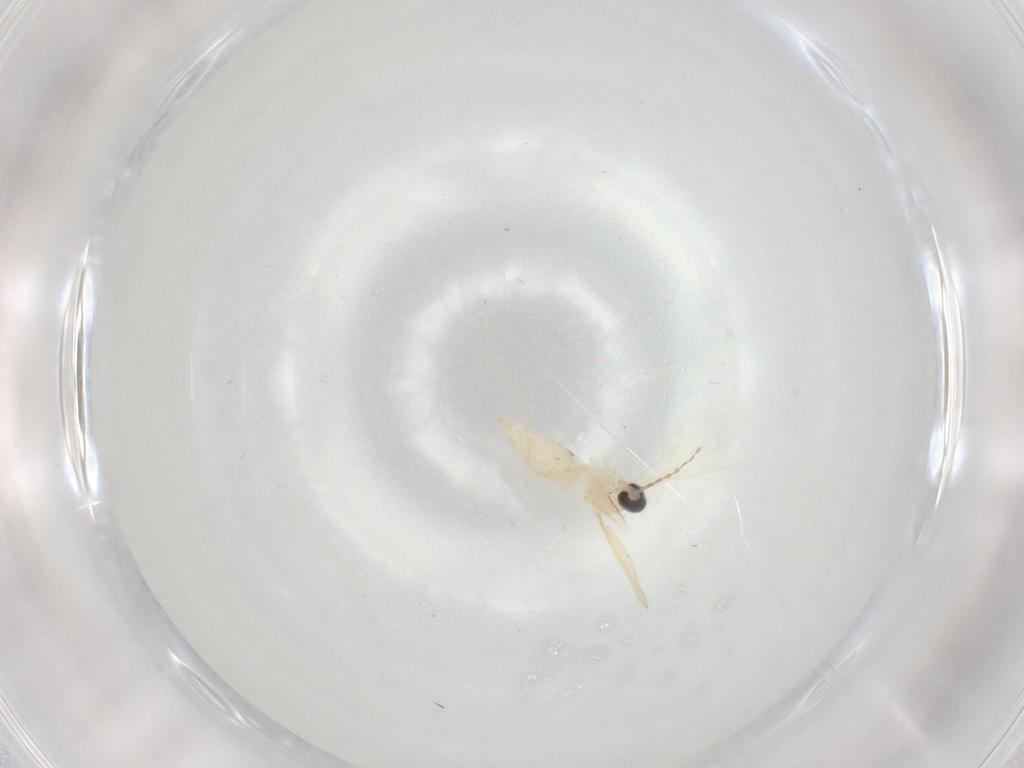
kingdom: Animalia
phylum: Arthropoda
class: Insecta
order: Diptera
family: Cecidomyiidae
